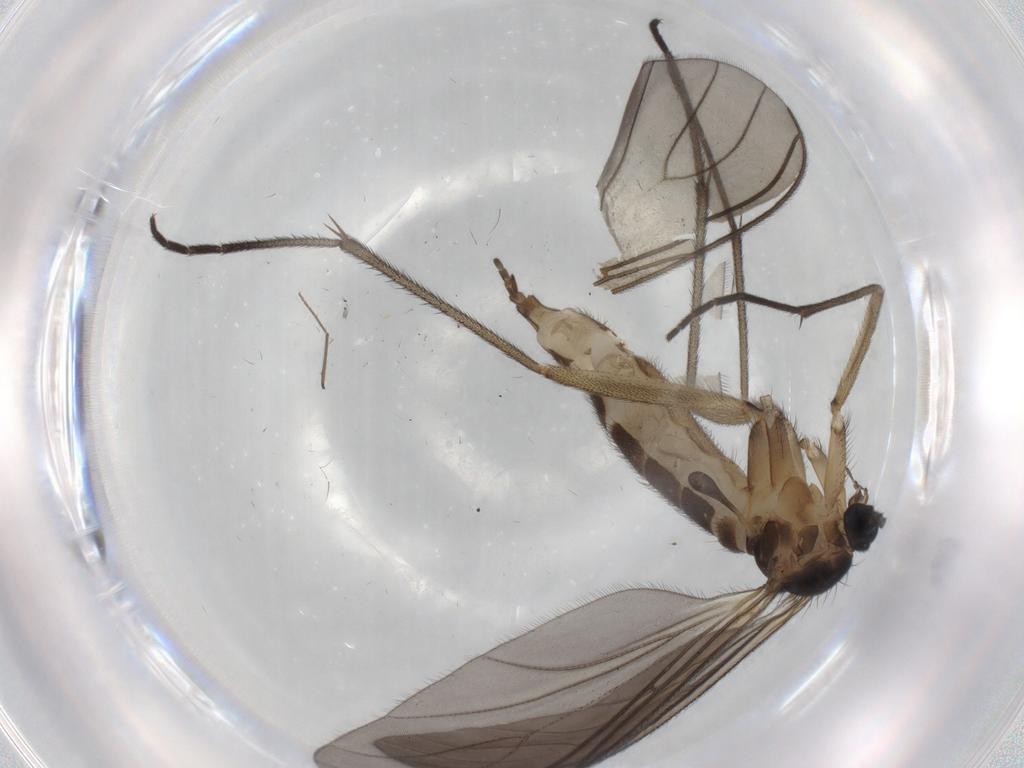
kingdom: Animalia
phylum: Arthropoda
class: Insecta
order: Diptera
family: Sciaridae
